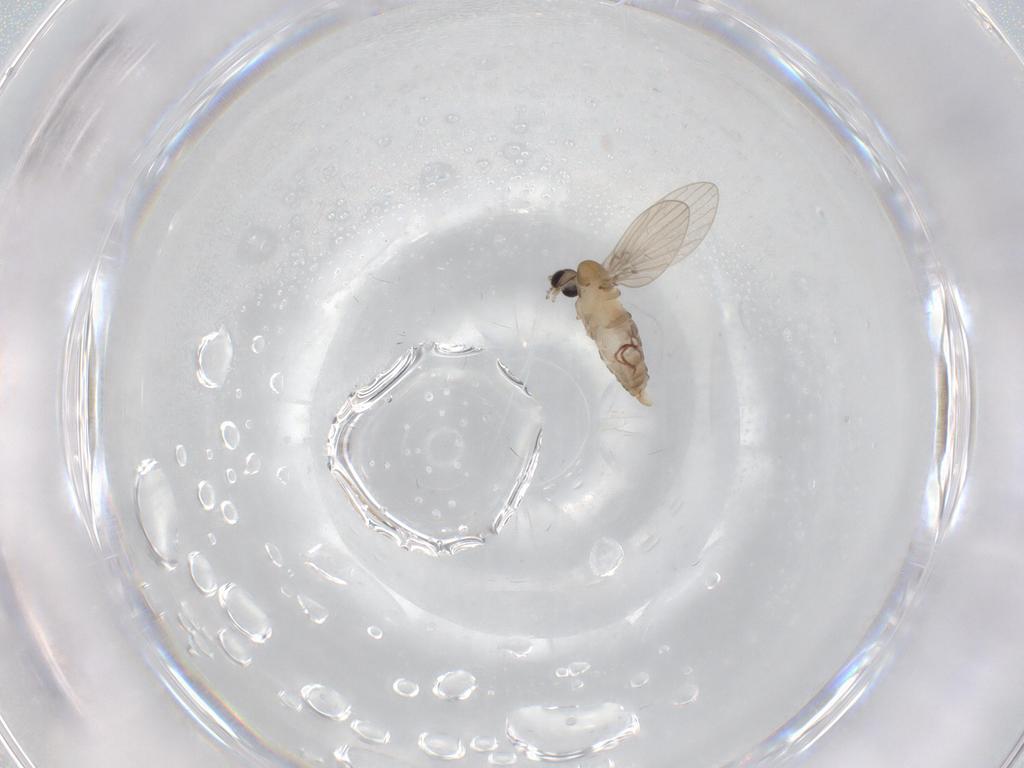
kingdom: Animalia
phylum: Arthropoda
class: Insecta
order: Diptera
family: Psychodidae
